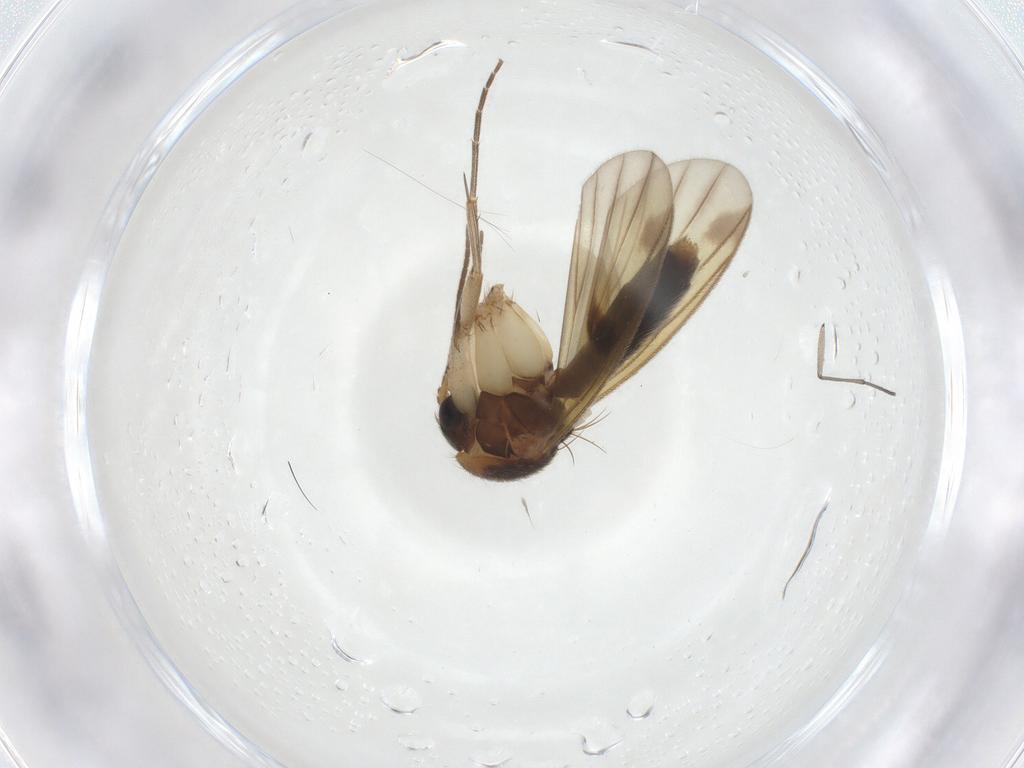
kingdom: Animalia
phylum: Arthropoda
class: Insecta
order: Diptera
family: Mycetophilidae
